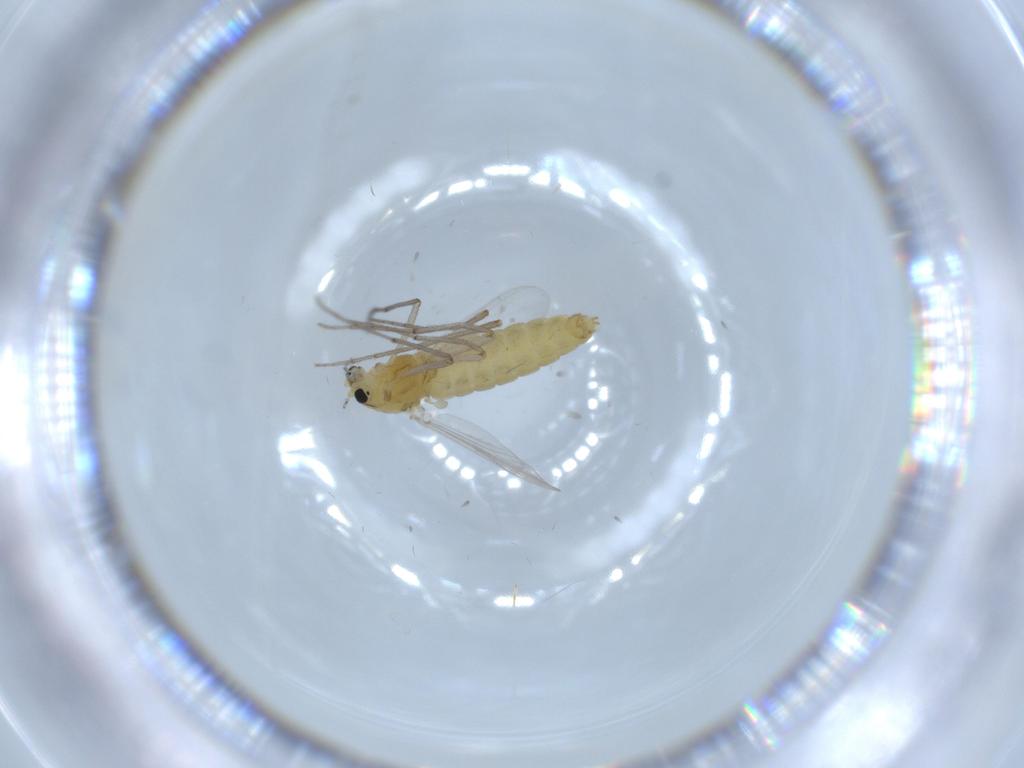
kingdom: Animalia
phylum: Arthropoda
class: Insecta
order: Diptera
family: Chironomidae
